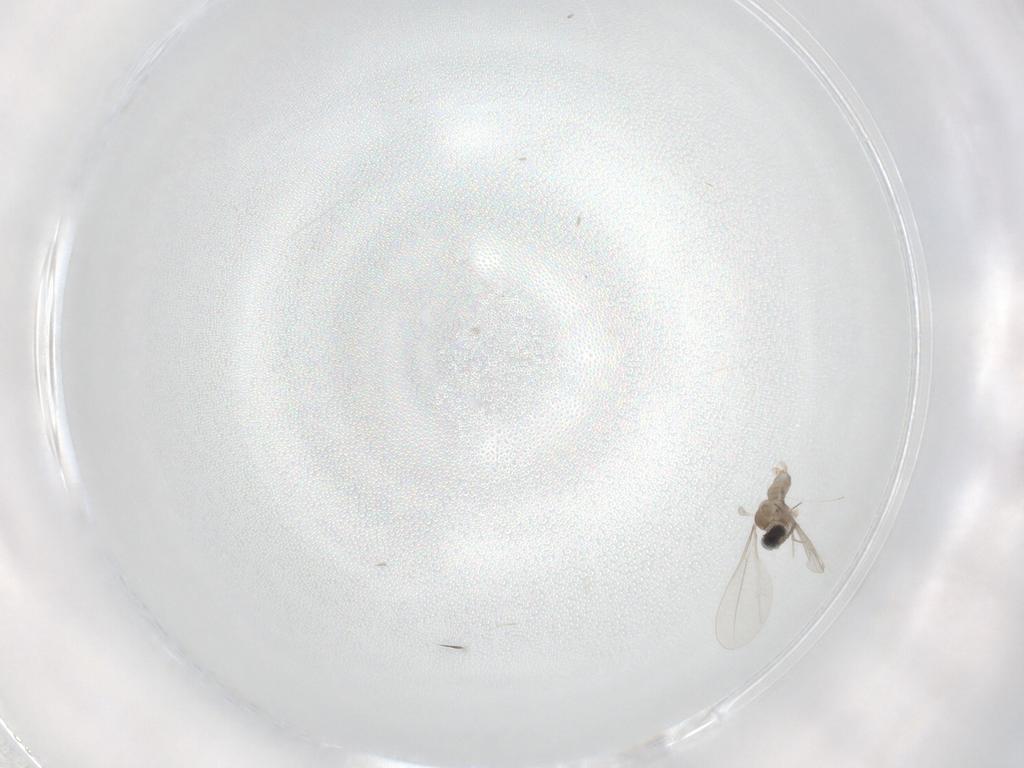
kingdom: Animalia
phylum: Arthropoda
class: Insecta
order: Diptera
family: Cecidomyiidae
